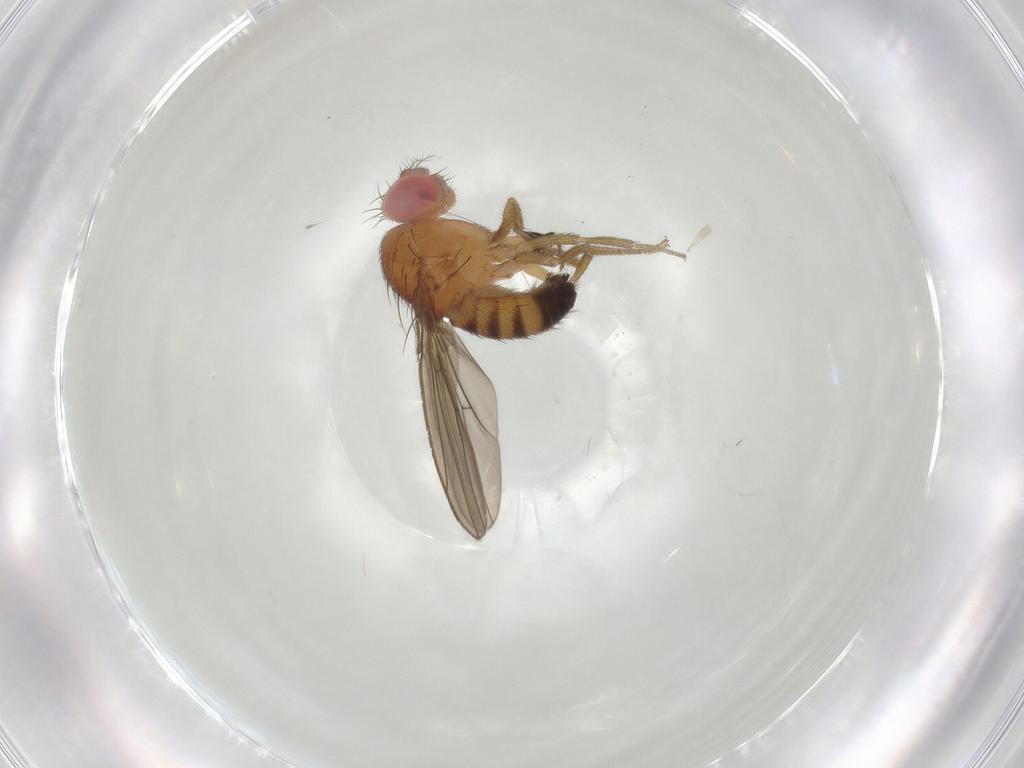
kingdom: Animalia
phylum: Arthropoda
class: Insecta
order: Diptera
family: Drosophilidae
